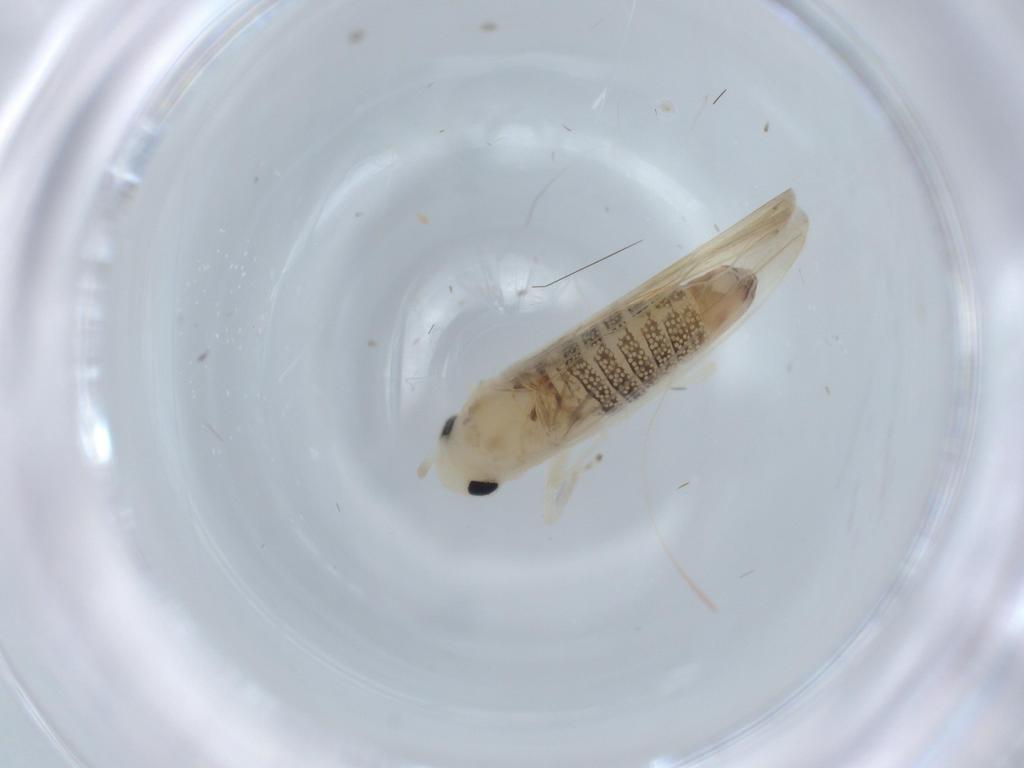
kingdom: Animalia
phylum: Arthropoda
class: Insecta
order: Hemiptera
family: Cicadellidae
